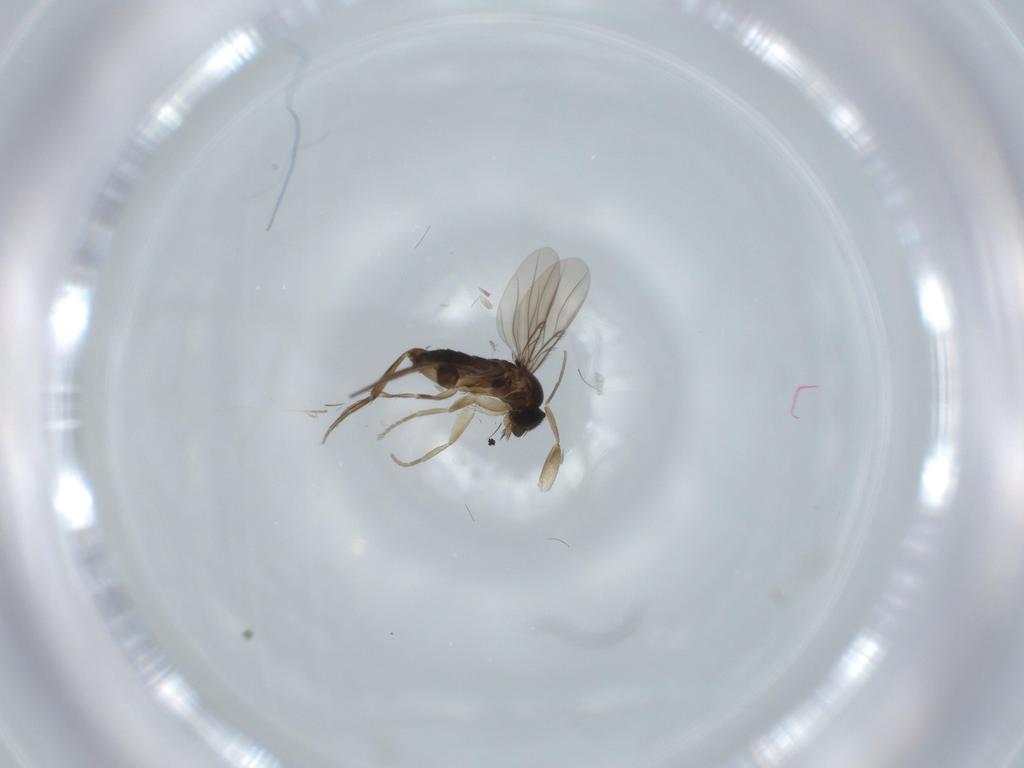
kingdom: Animalia
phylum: Arthropoda
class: Insecta
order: Diptera
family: Phoridae
